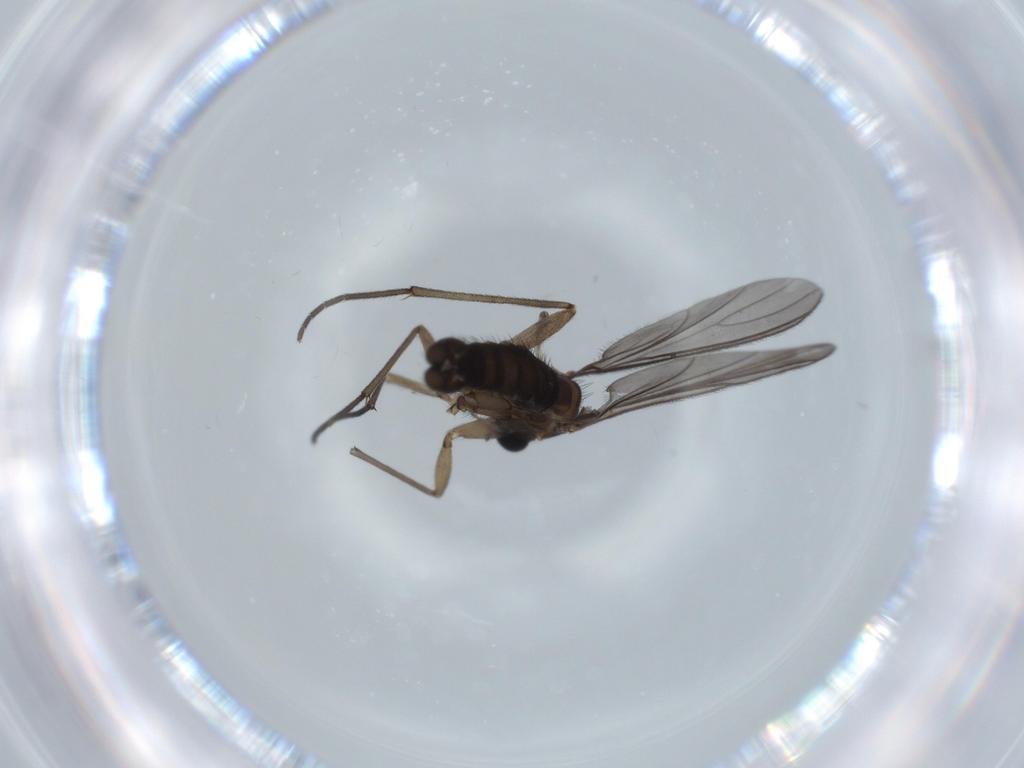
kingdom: Animalia
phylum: Arthropoda
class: Insecta
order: Diptera
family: Sciaridae
